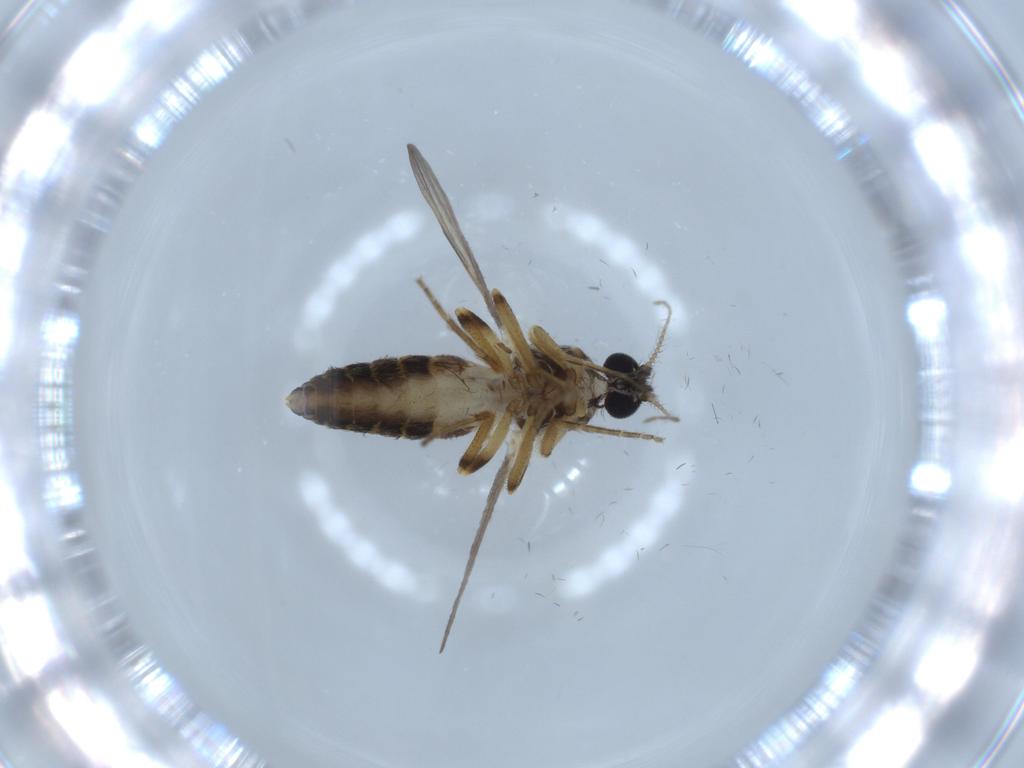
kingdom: Animalia
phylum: Arthropoda
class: Insecta
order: Diptera
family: Ceratopogonidae
